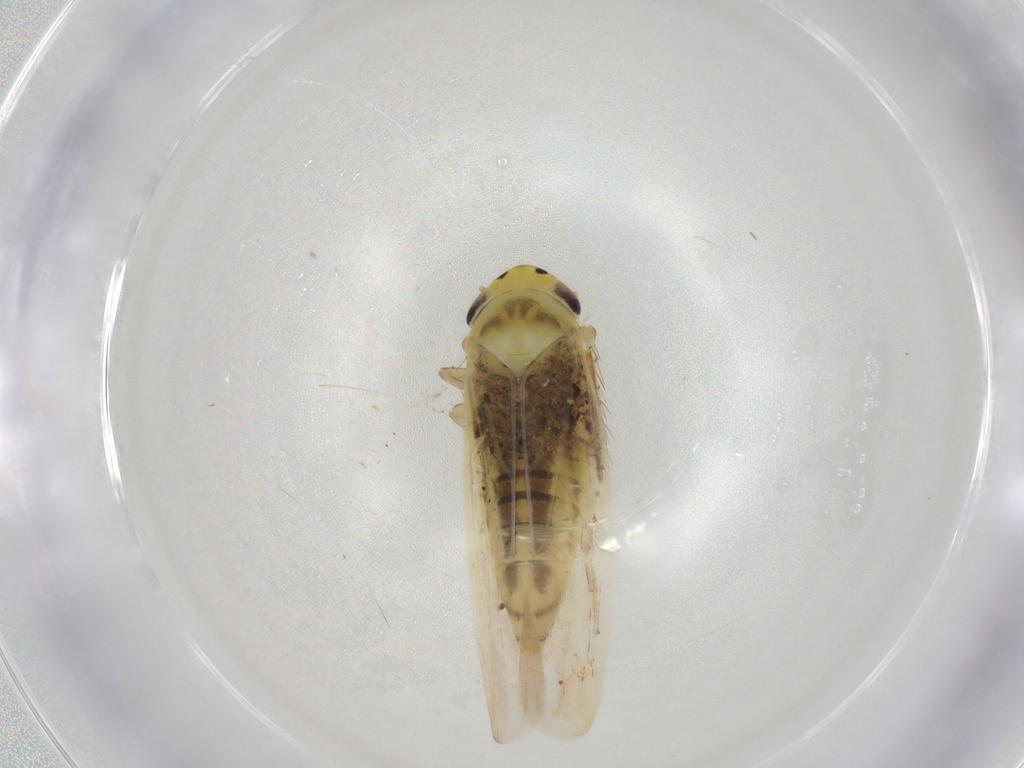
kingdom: Animalia
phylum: Arthropoda
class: Collembola
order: Entomobryomorpha
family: Entomobryidae
